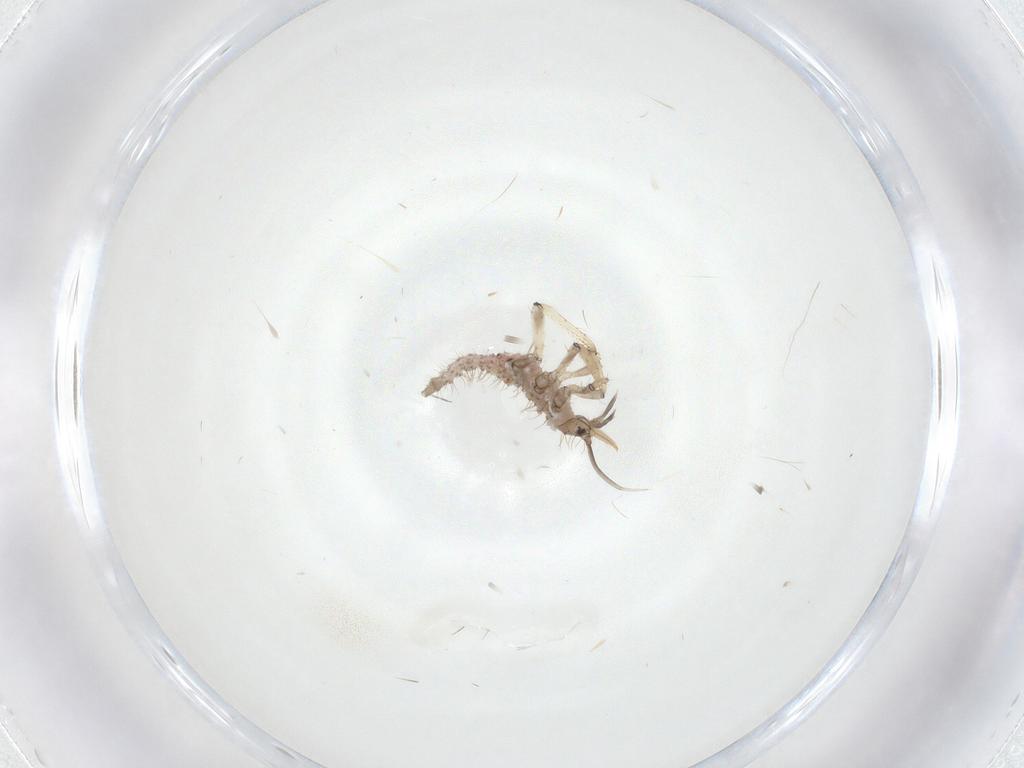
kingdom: Animalia
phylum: Arthropoda
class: Insecta
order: Neuroptera
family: Hemerobiidae
